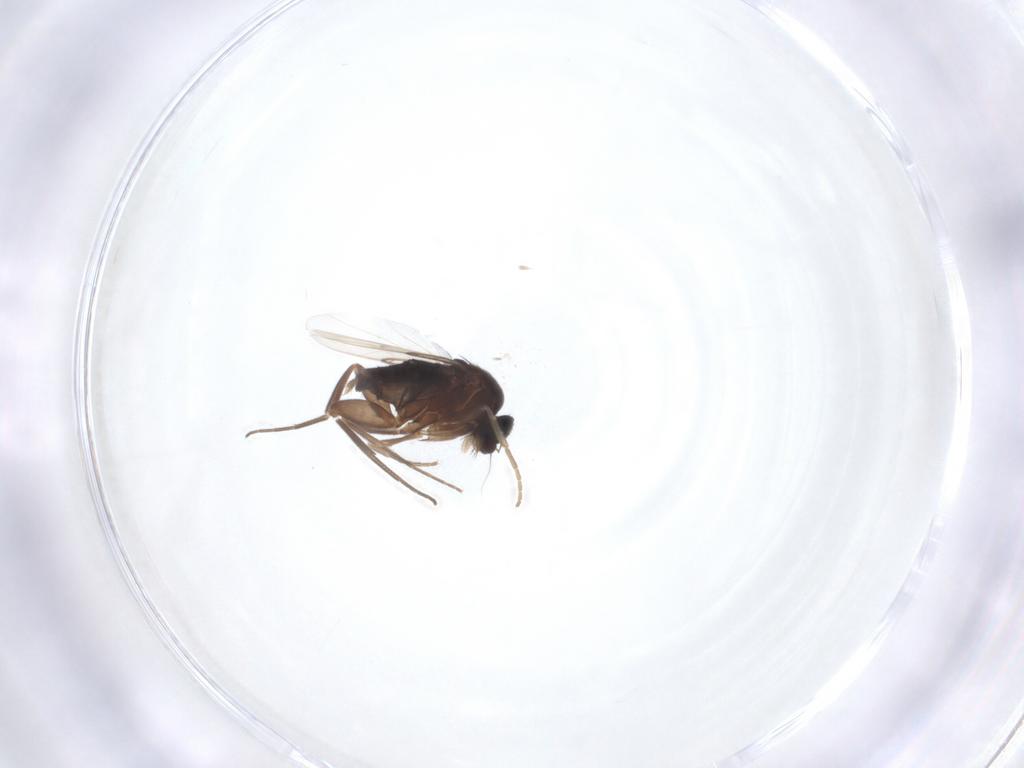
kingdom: Animalia
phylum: Arthropoda
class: Insecta
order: Diptera
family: Phoridae
